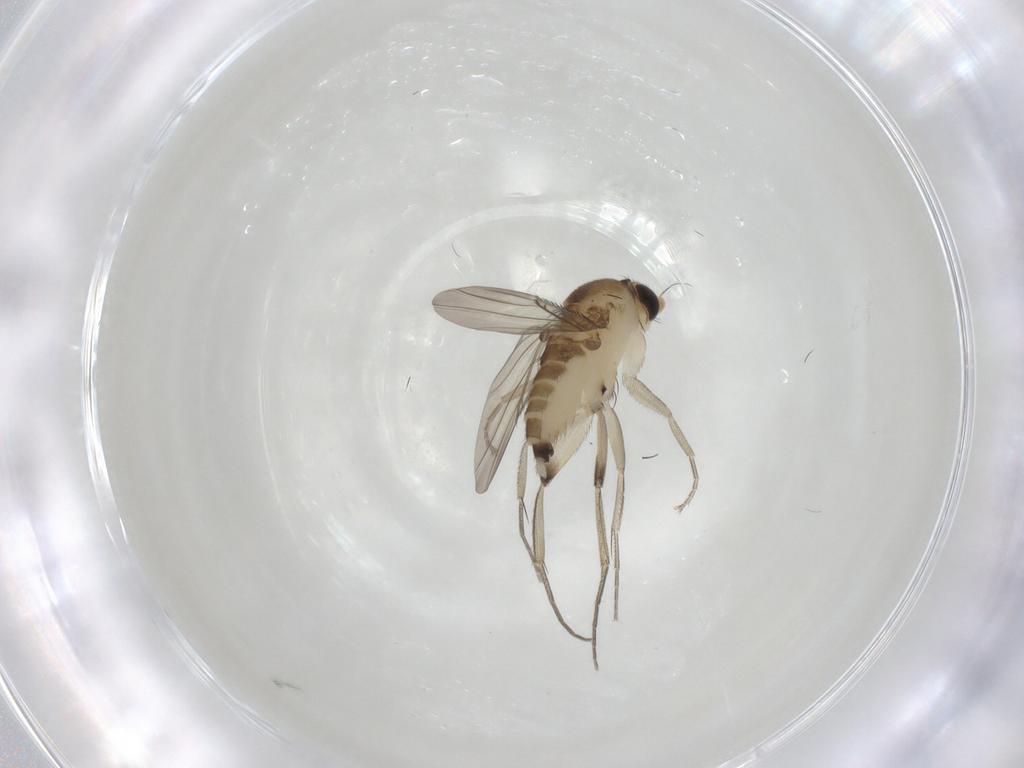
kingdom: Animalia
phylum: Arthropoda
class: Insecta
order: Diptera
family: Phoridae
